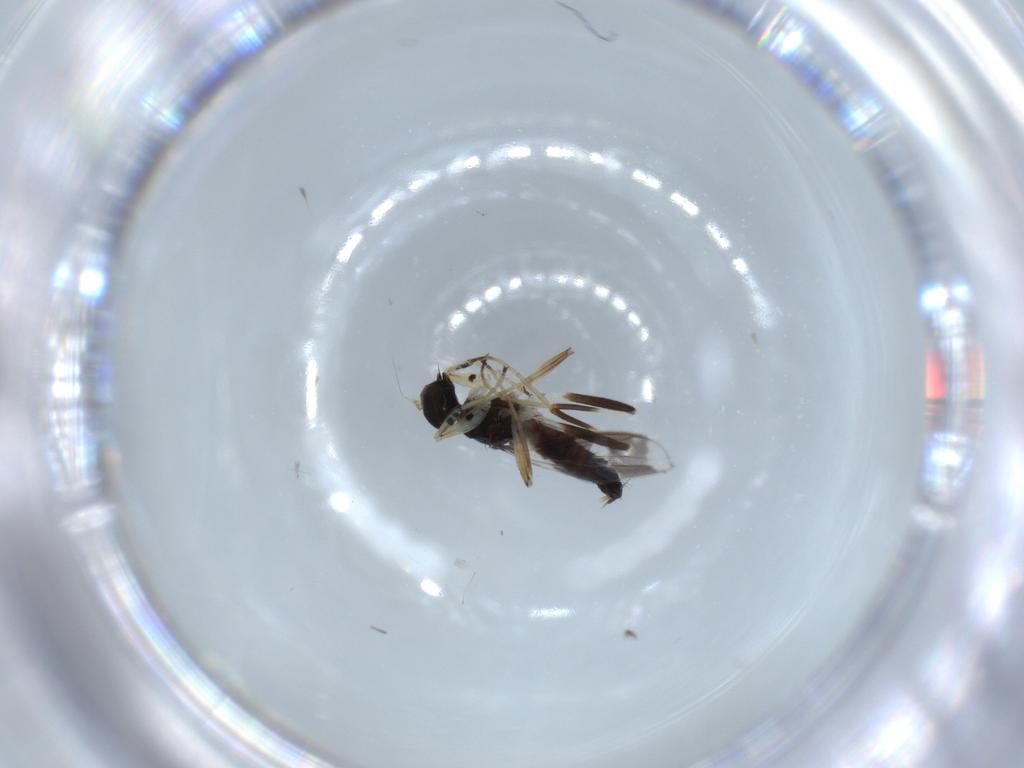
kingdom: Animalia
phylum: Arthropoda
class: Insecta
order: Diptera
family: Hybotidae
